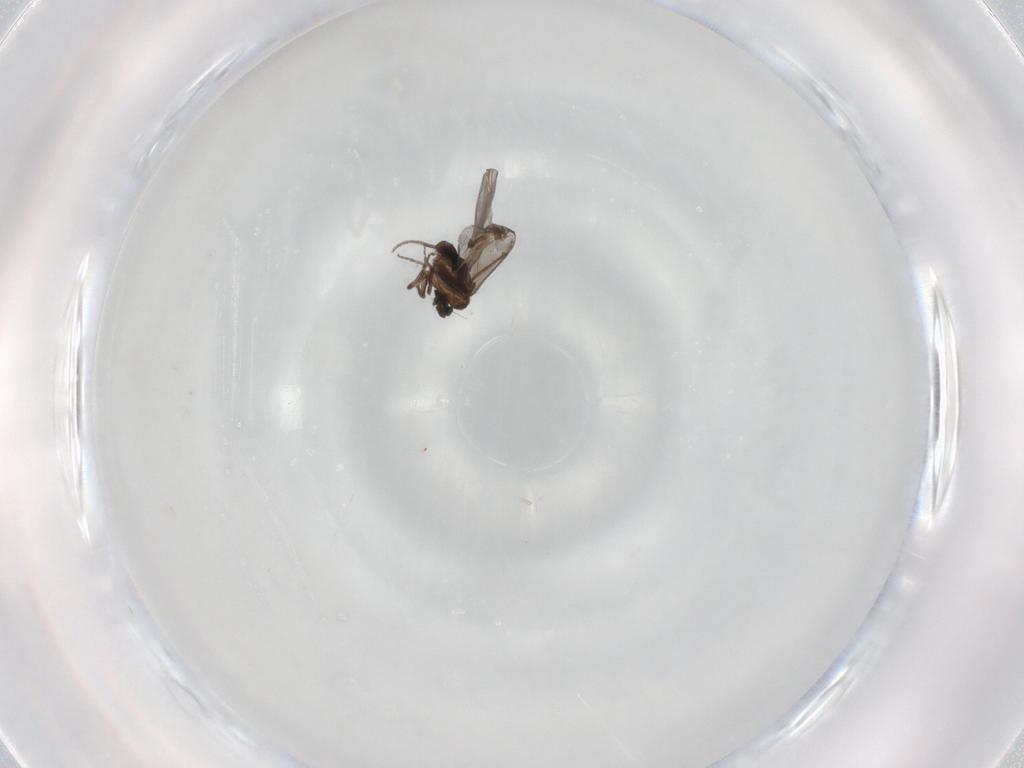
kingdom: Animalia
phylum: Arthropoda
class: Insecta
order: Diptera
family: Phoridae
